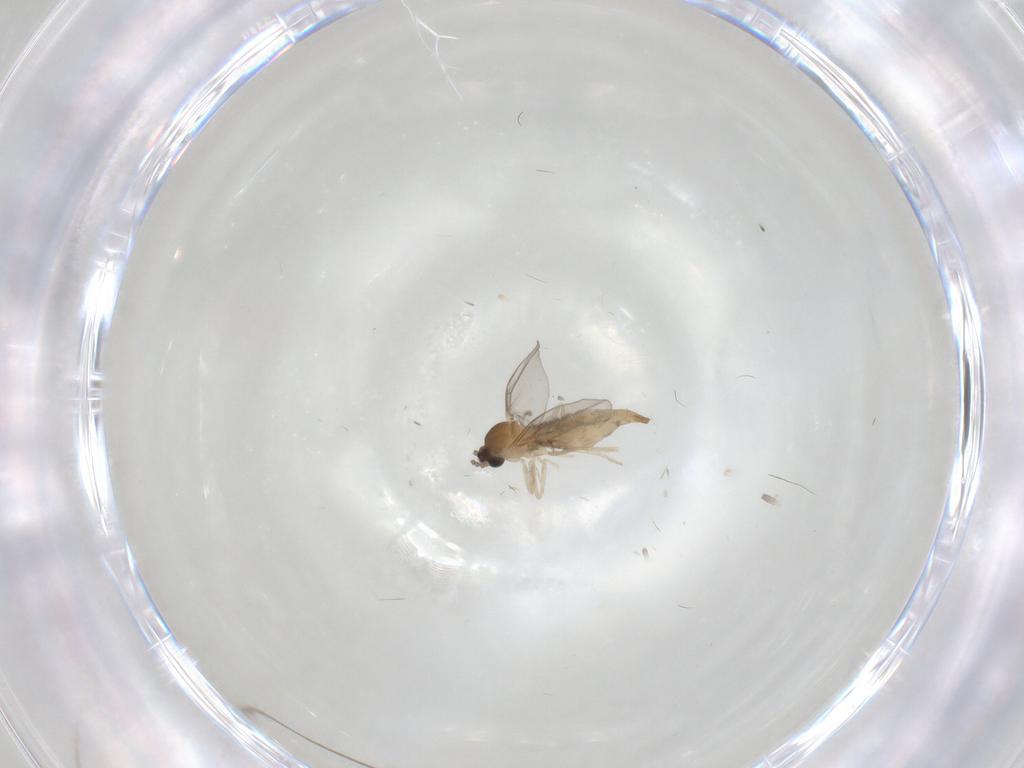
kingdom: Animalia
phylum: Arthropoda
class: Insecta
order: Diptera
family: Cecidomyiidae
